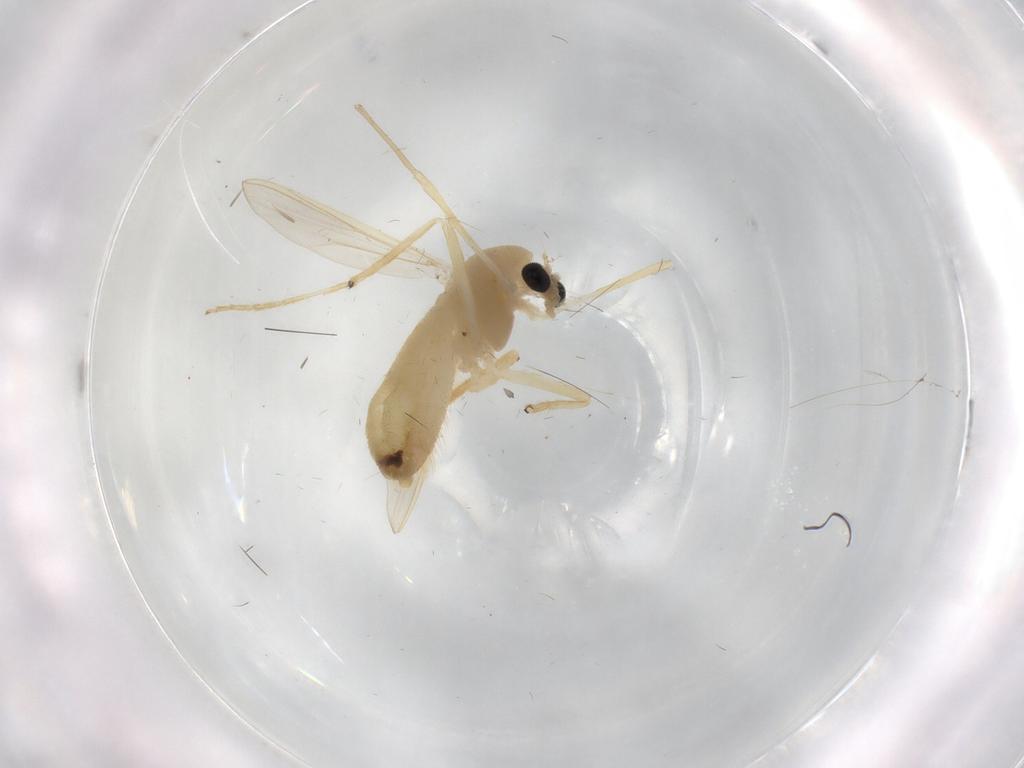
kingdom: Animalia
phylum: Arthropoda
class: Insecta
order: Diptera
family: Chironomidae
